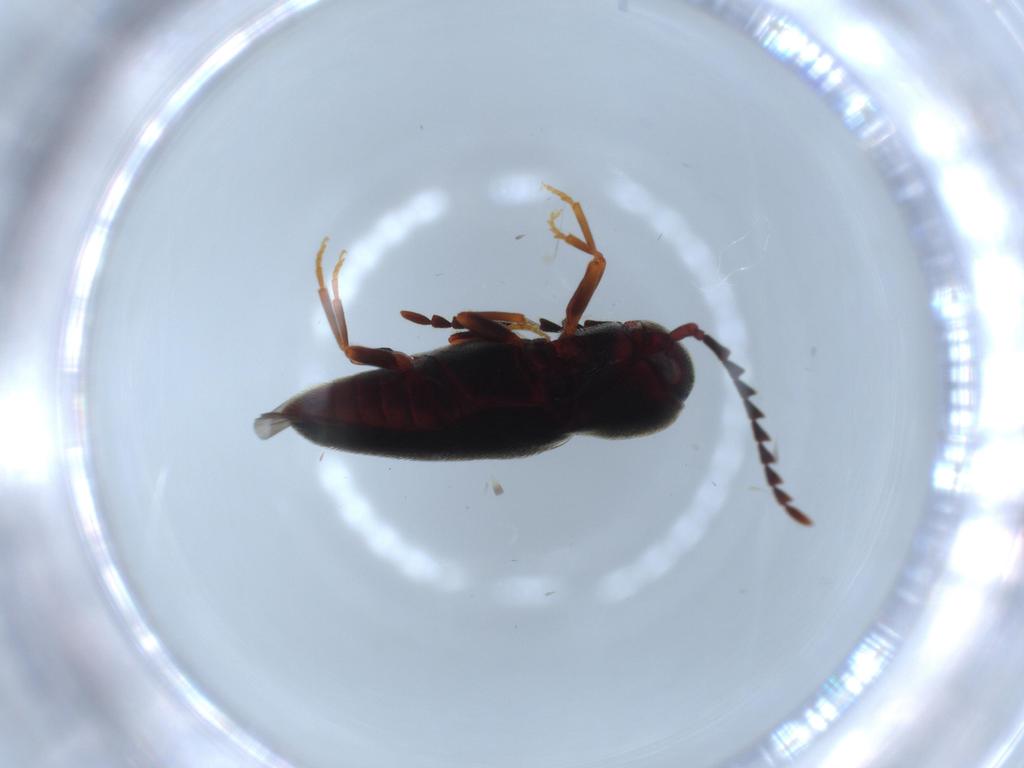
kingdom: Animalia
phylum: Arthropoda
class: Insecta
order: Coleoptera
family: Eucnemidae
